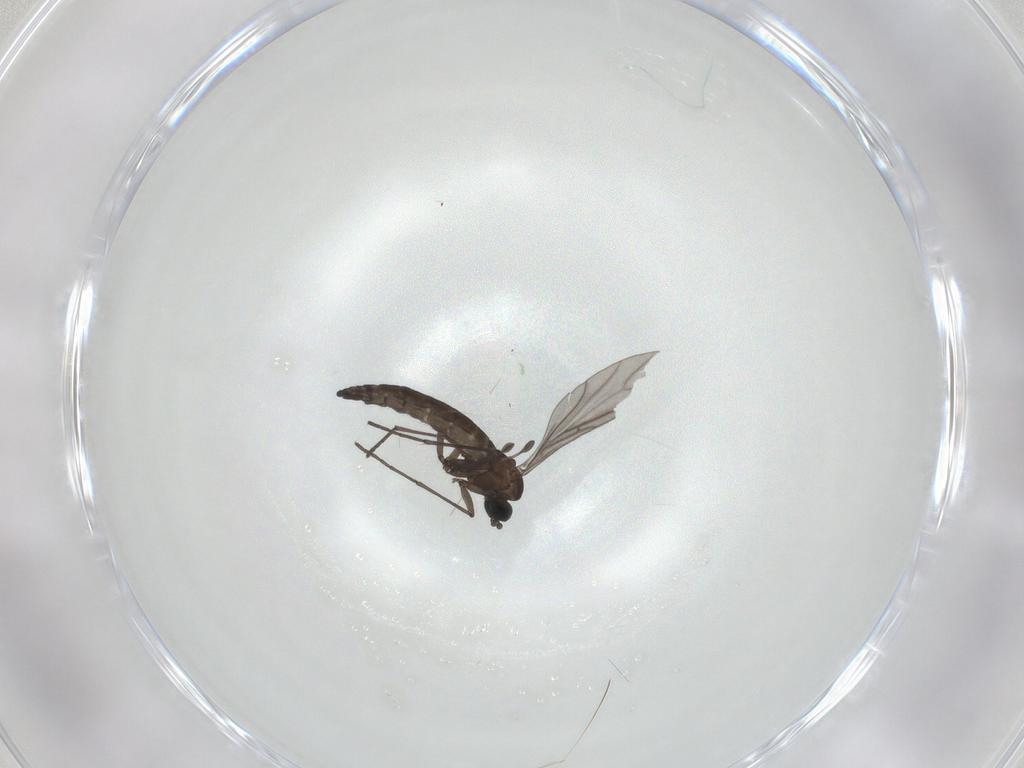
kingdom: Animalia
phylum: Arthropoda
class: Insecta
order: Diptera
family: Sciaridae
